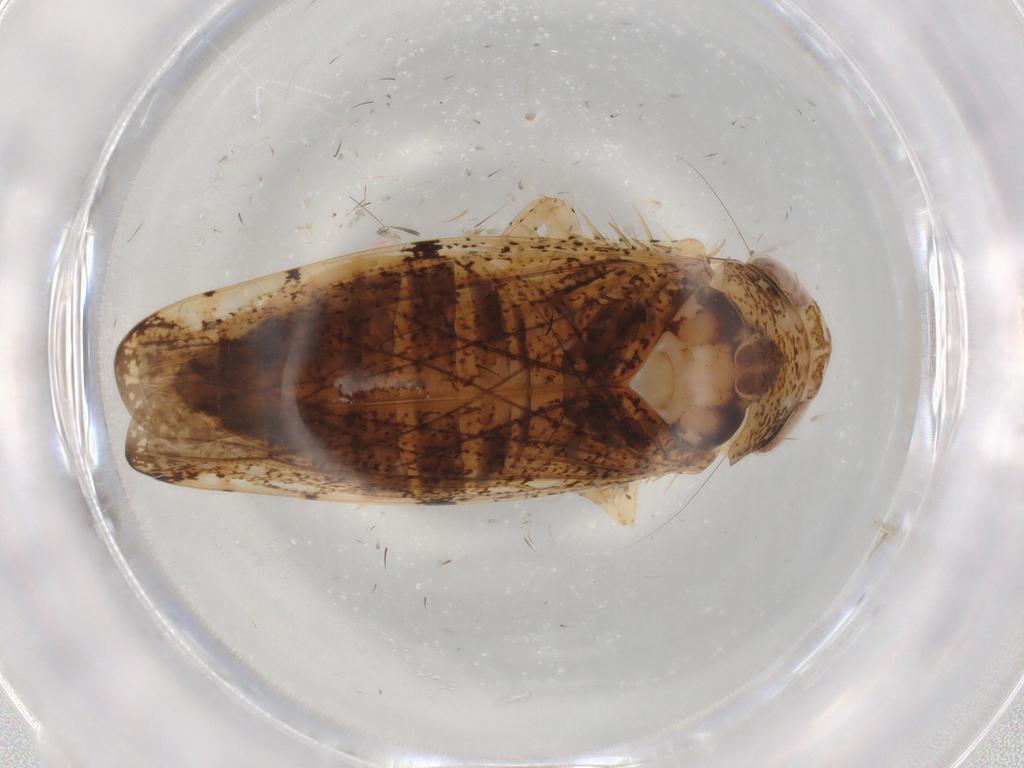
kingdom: Animalia
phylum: Arthropoda
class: Insecta
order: Hemiptera
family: Cicadellidae
